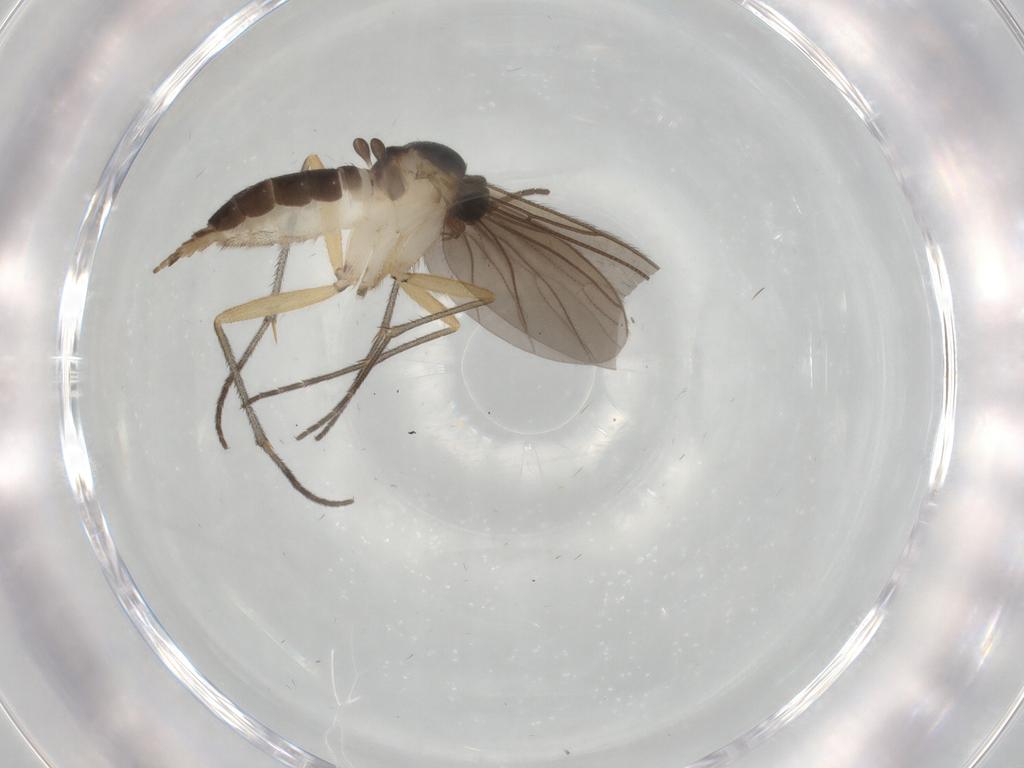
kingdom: Animalia
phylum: Arthropoda
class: Insecta
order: Diptera
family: Sciaridae
